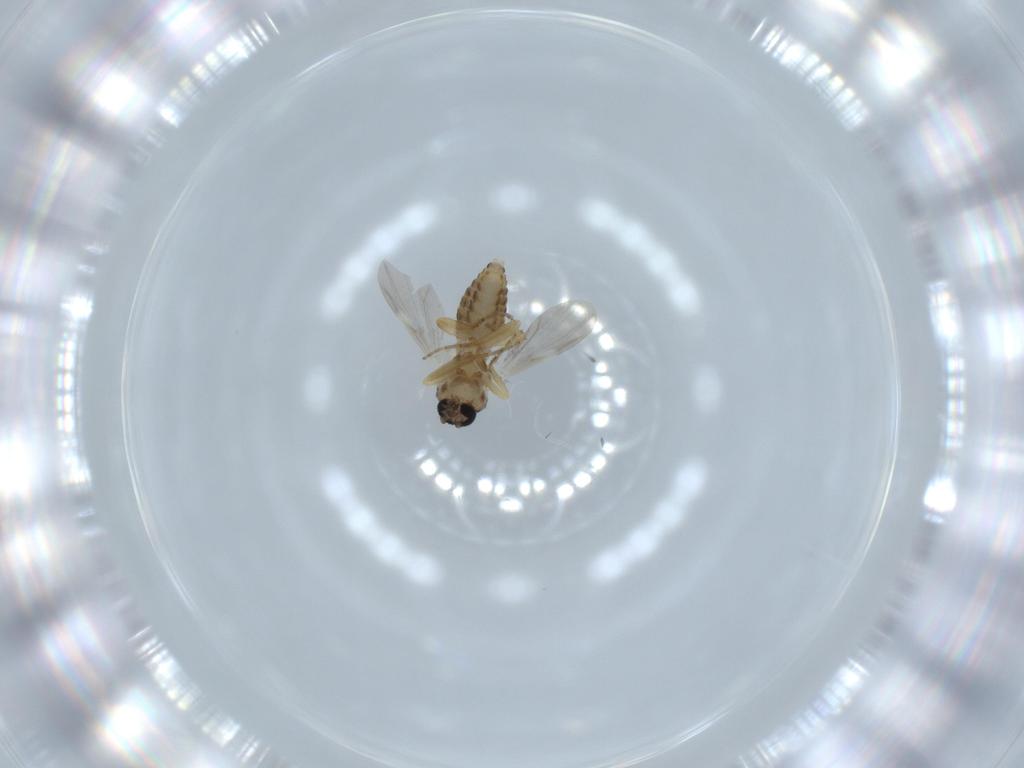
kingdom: Animalia
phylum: Arthropoda
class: Insecta
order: Diptera
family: Ceratopogonidae
